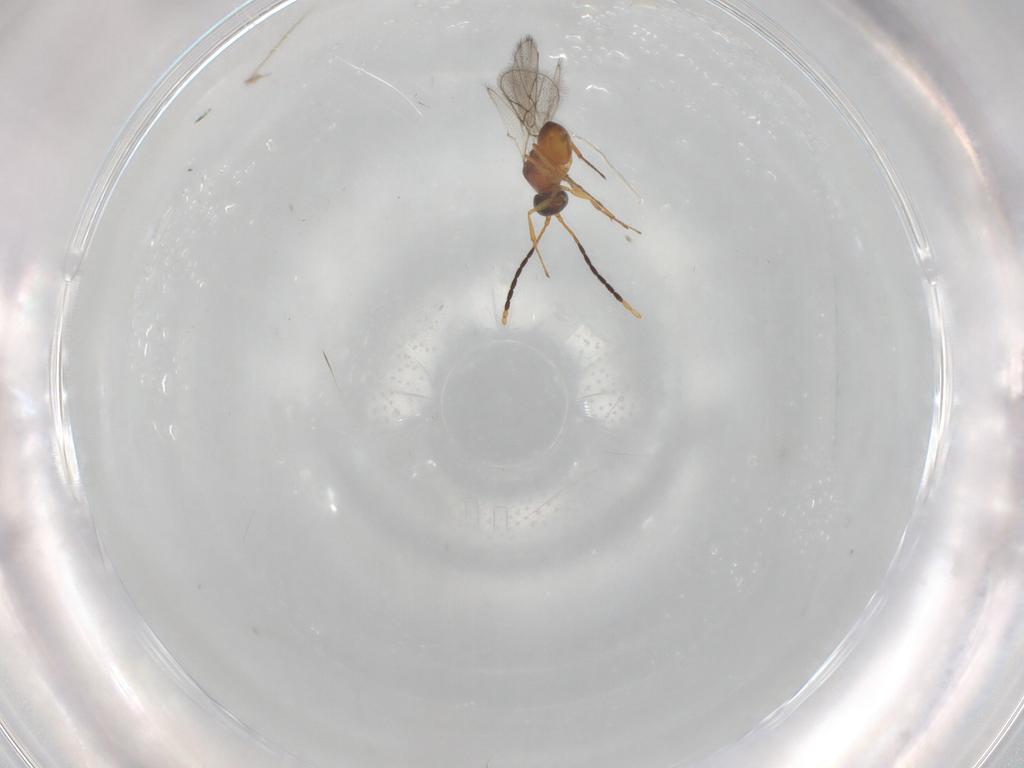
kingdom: Animalia
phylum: Arthropoda
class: Insecta
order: Hymenoptera
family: Figitidae
